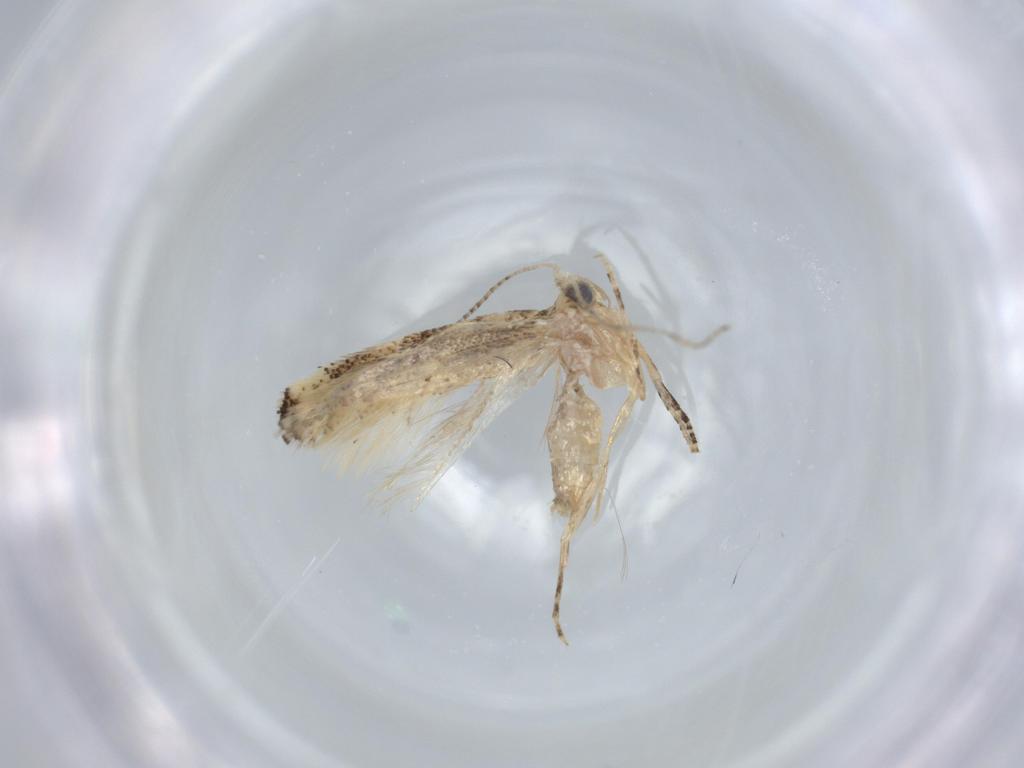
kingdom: Animalia
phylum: Arthropoda
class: Insecta
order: Lepidoptera
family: Bucculatricidae
